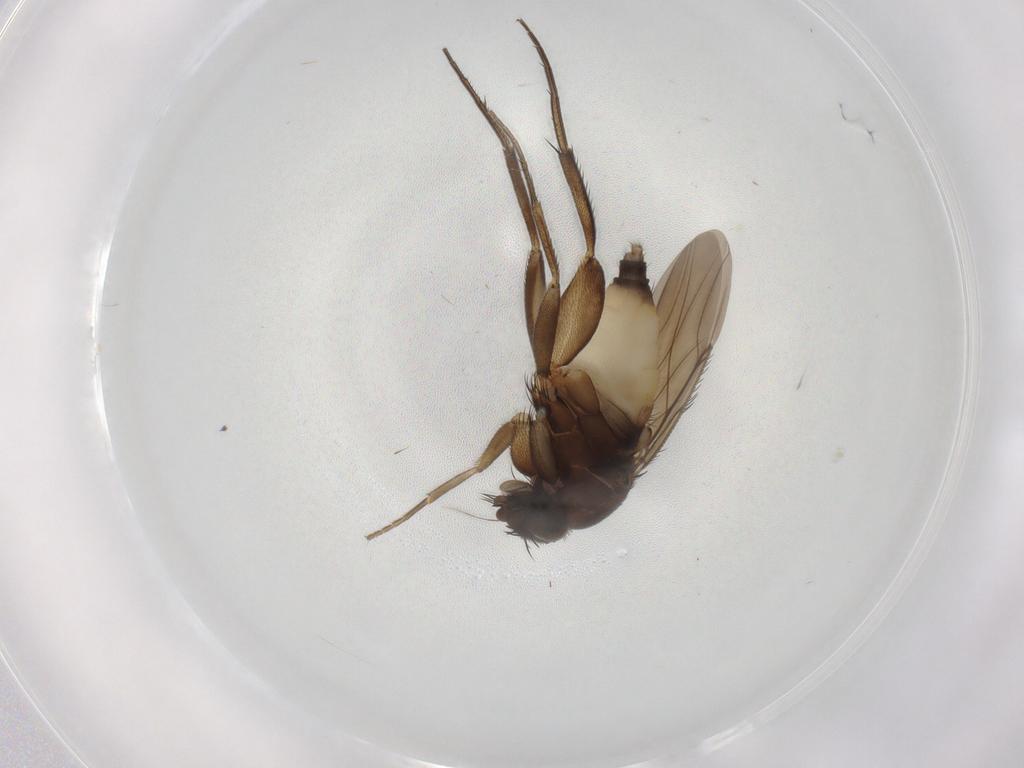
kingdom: Animalia
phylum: Arthropoda
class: Insecta
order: Diptera
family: Phoridae
